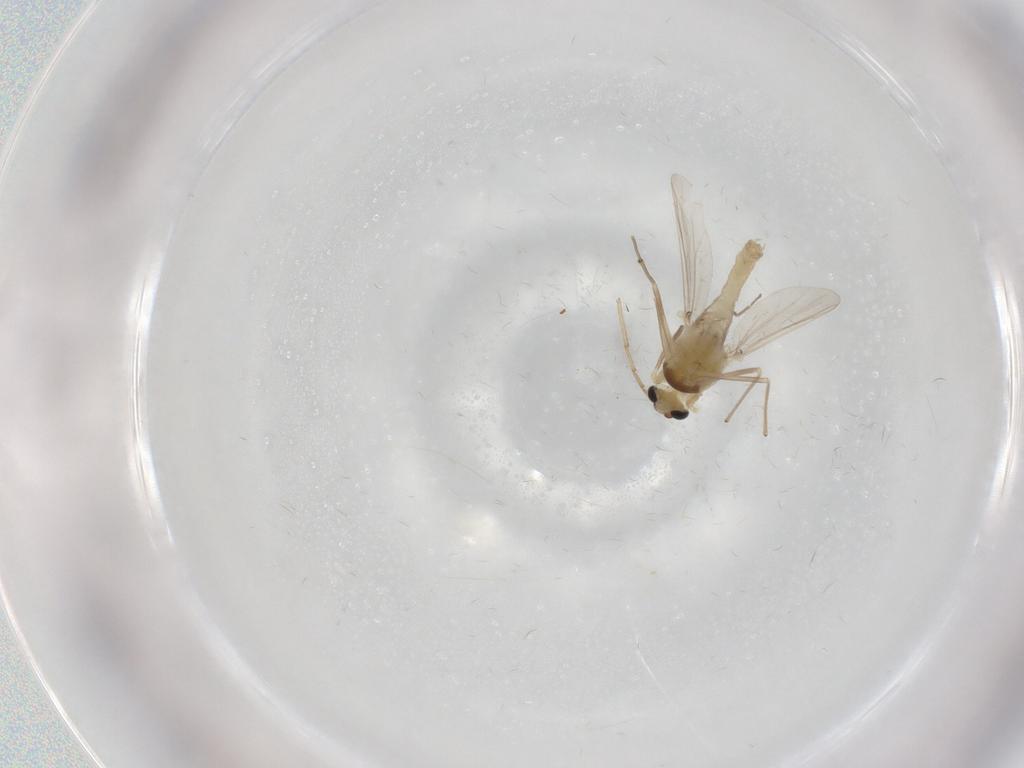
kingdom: Animalia
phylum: Arthropoda
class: Insecta
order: Diptera
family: Chironomidae
